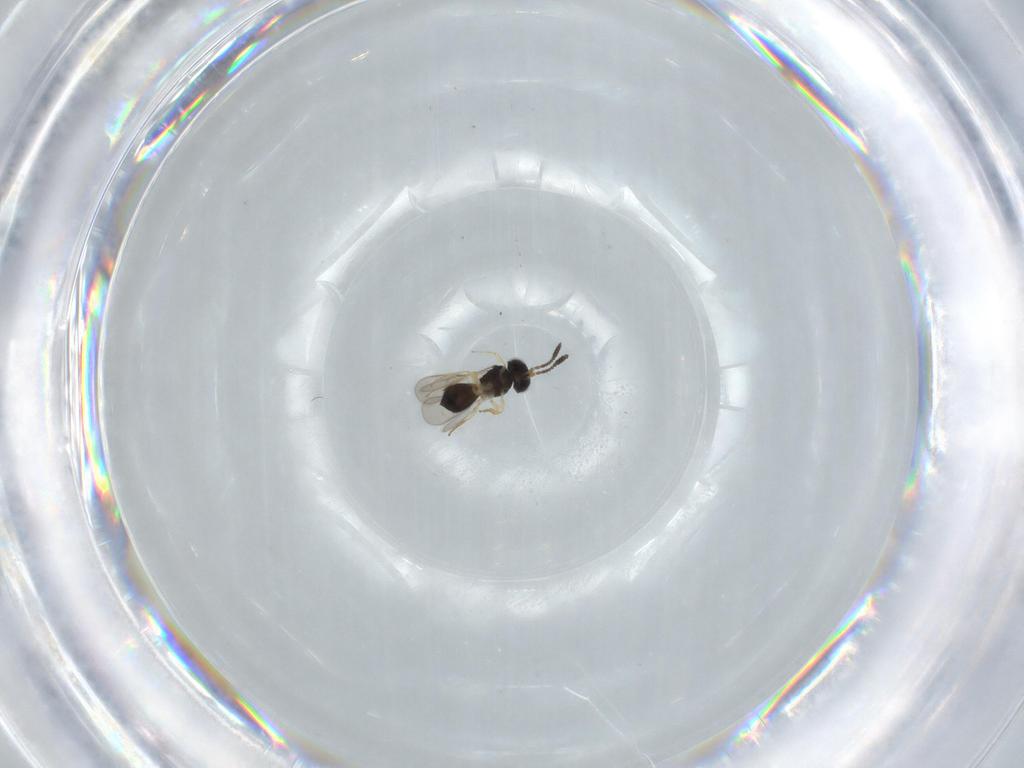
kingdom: Animalia
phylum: Arthropoda
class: Insecta
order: Hymenoptera
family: Scelionidae
